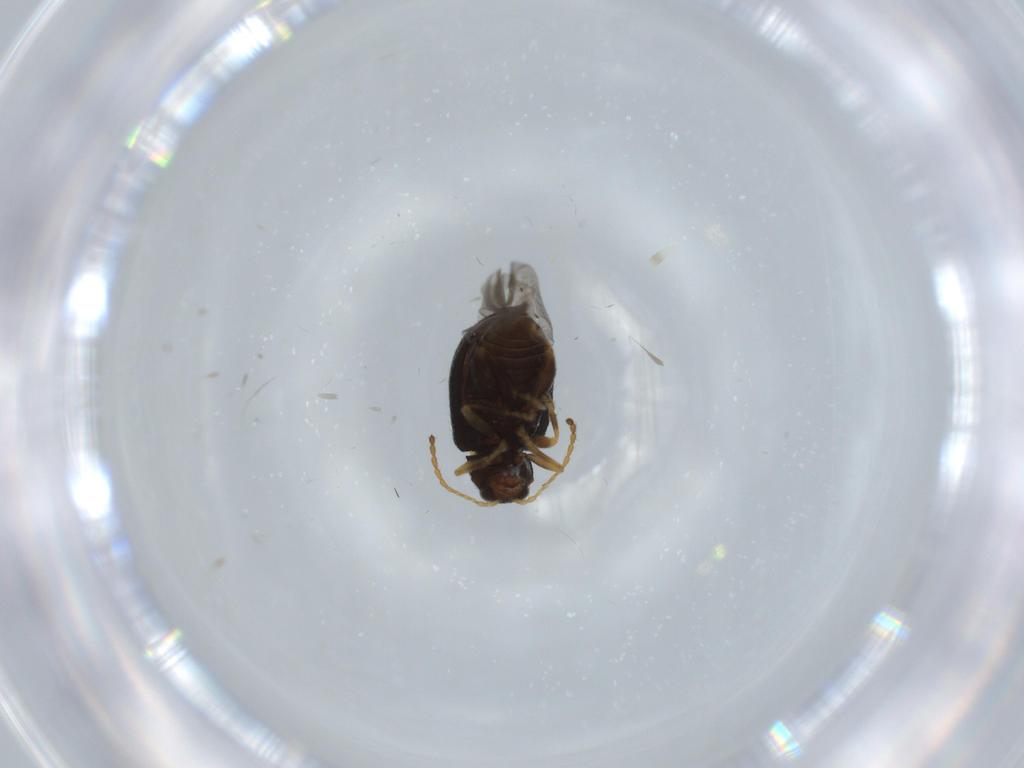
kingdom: Animalia
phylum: Arthropoda
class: Insecta
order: Coleoptera
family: Chrysomelidae
